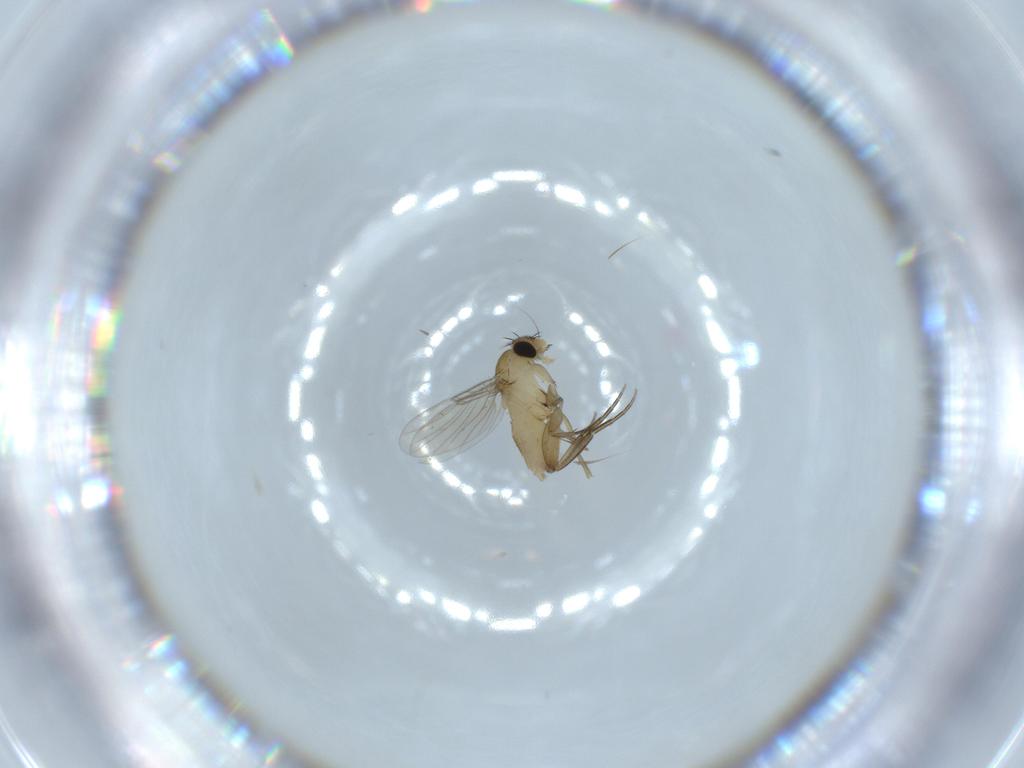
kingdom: Animalia
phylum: Arthropoda
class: Insecta
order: Diptera
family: Phoridae
